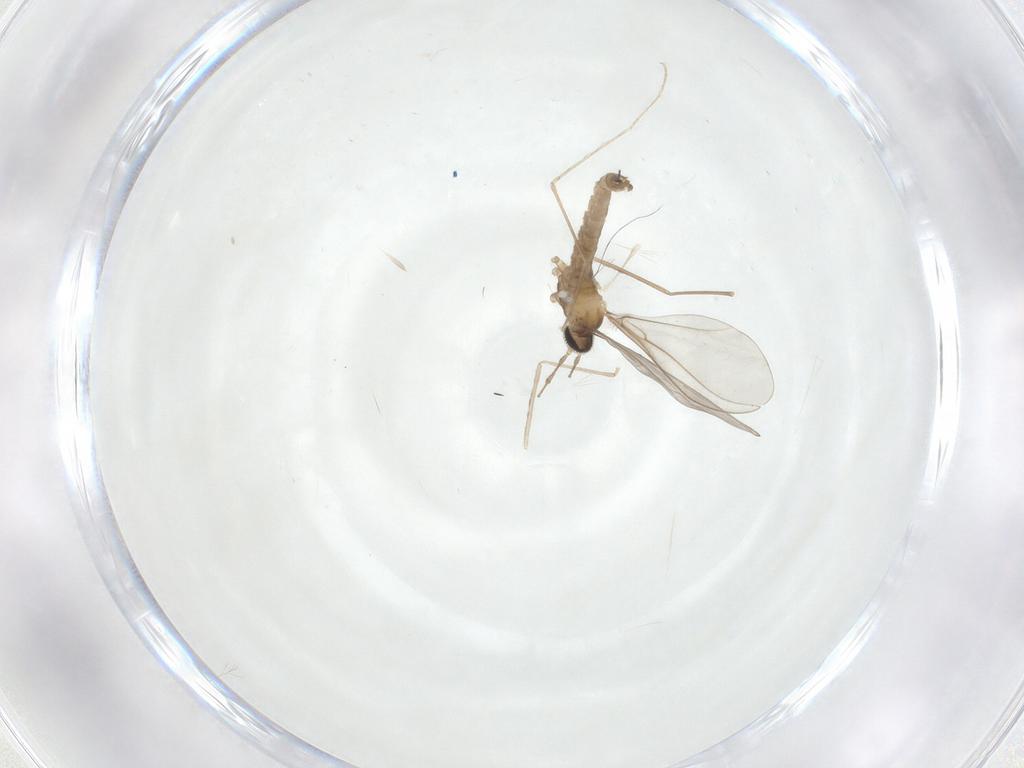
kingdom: Animalia
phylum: Arthropoda
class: Insecta
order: Diptera
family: Cecidomyiidae
